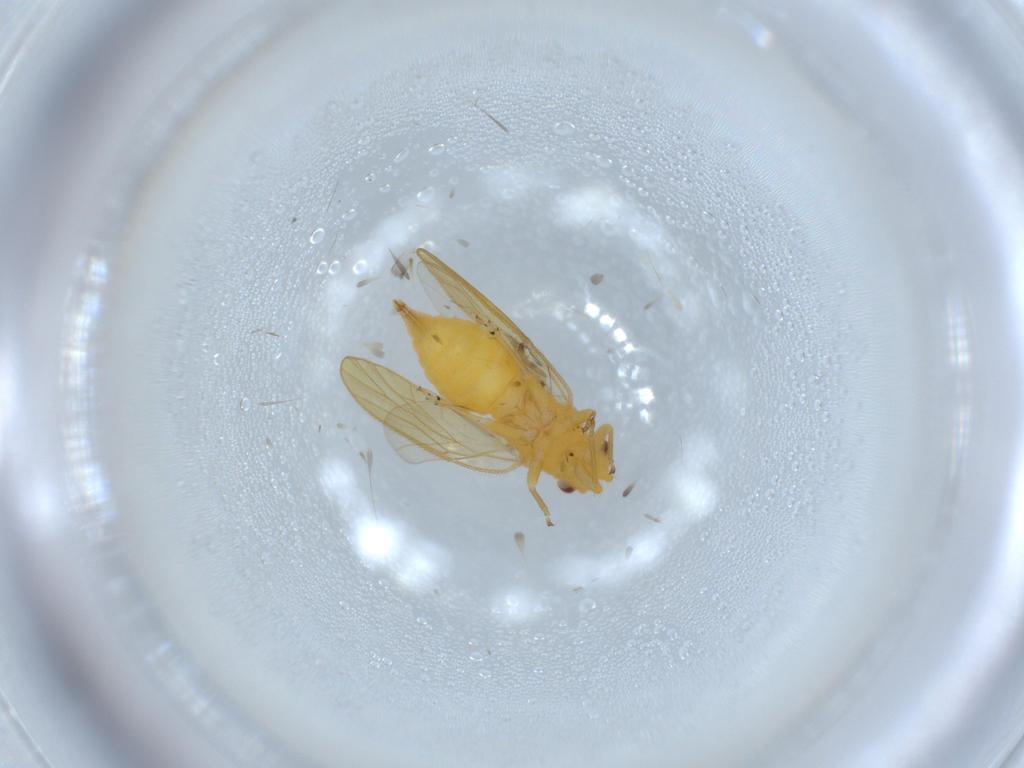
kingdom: Animalia
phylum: Arthropoda
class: Insecta
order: Hemiptera
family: Psyllidae
